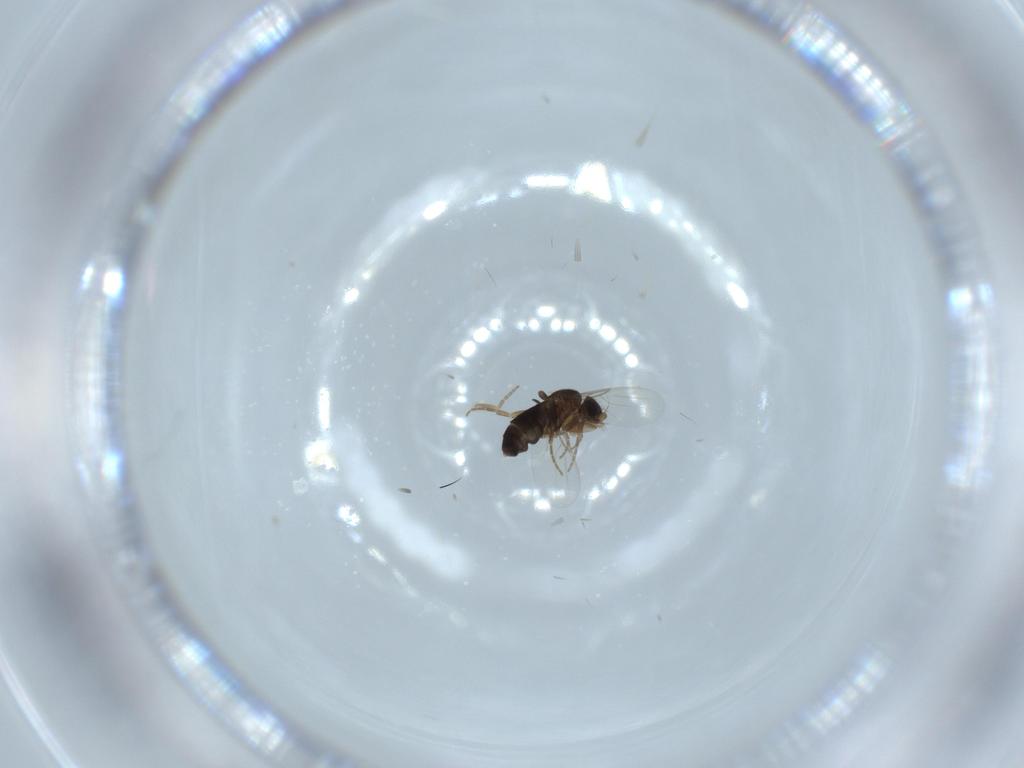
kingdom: Animalia
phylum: Arthropoda
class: Insecta
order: Diptera
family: Phoridae
